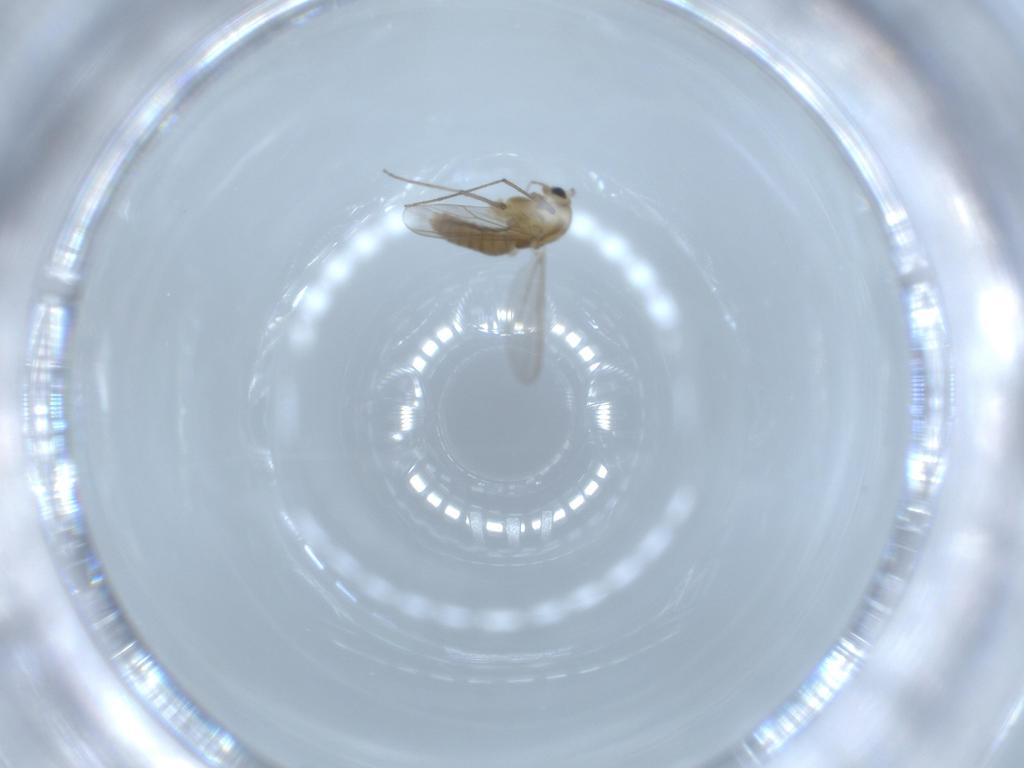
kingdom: Animalia
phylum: Arthropoda
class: Insecta
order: Diptera
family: Chironomidae
